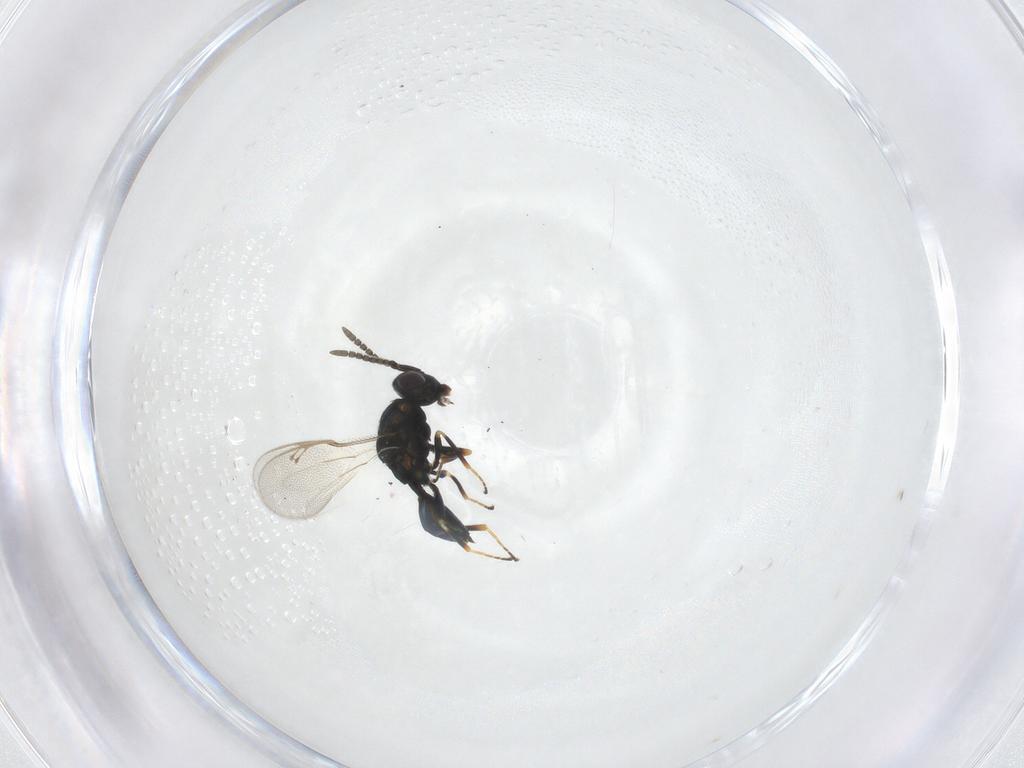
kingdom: Animalia
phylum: Arthropoda
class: Insecta
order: Hymenoptera
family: Pteromalidae
